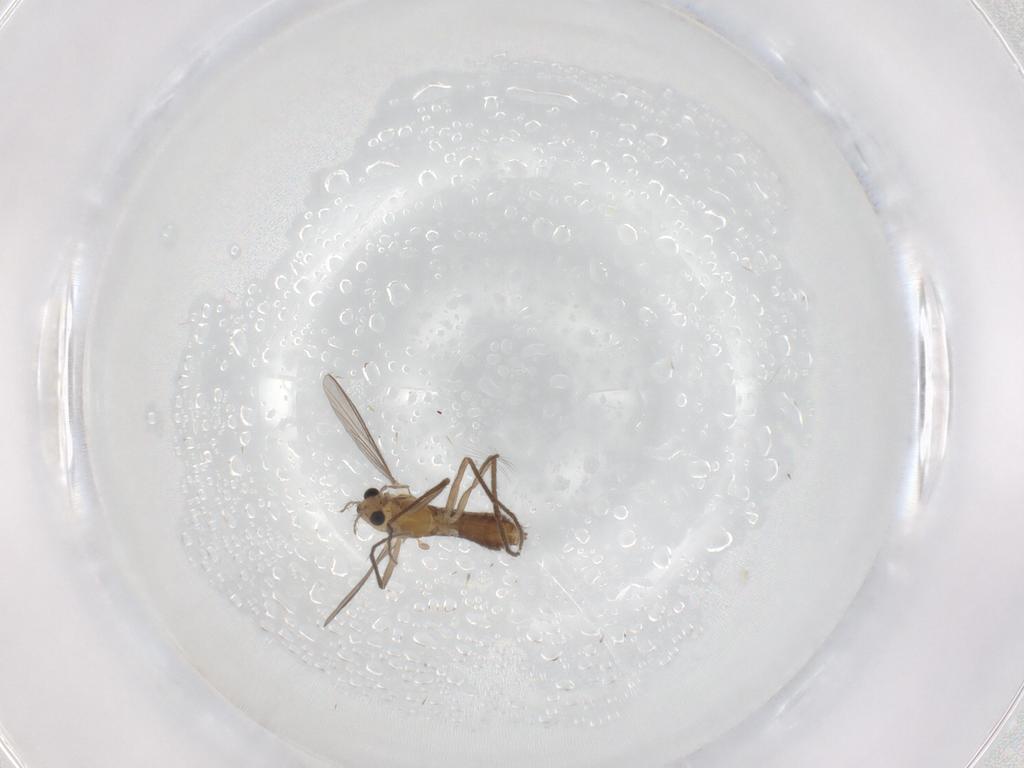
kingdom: Animalia
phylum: Arthropoda
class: Insecta
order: Diptera
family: Chironomidae
